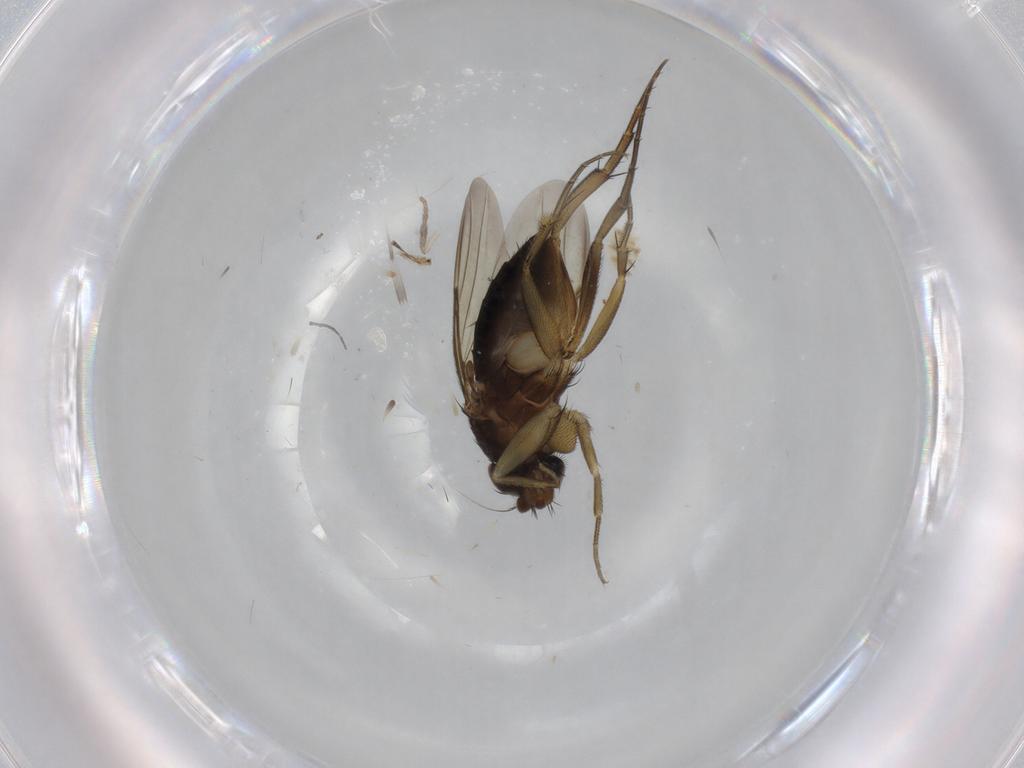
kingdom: Animalia
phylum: Arthropoda
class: Insecta
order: Diptera
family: Phoridae
